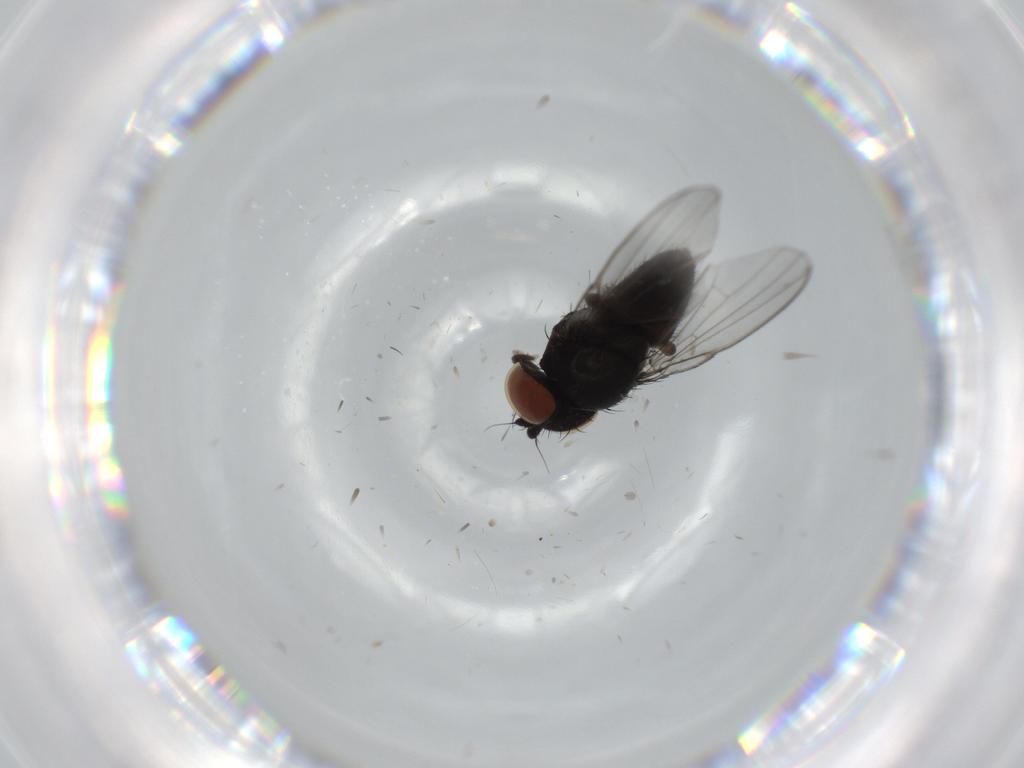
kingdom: Animalia
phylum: Arthropoda
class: Insecta
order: Diptera
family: Milichiidae
